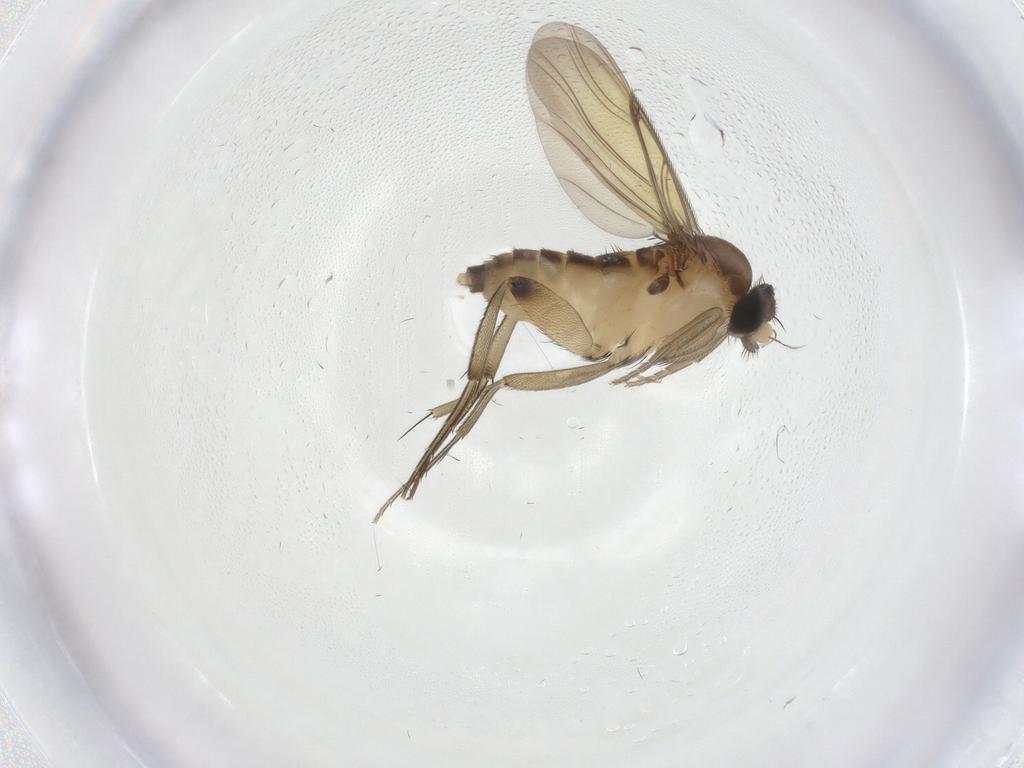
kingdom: Animalia
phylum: Arthropoda
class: Insecta
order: Diptera
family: Phoridae
